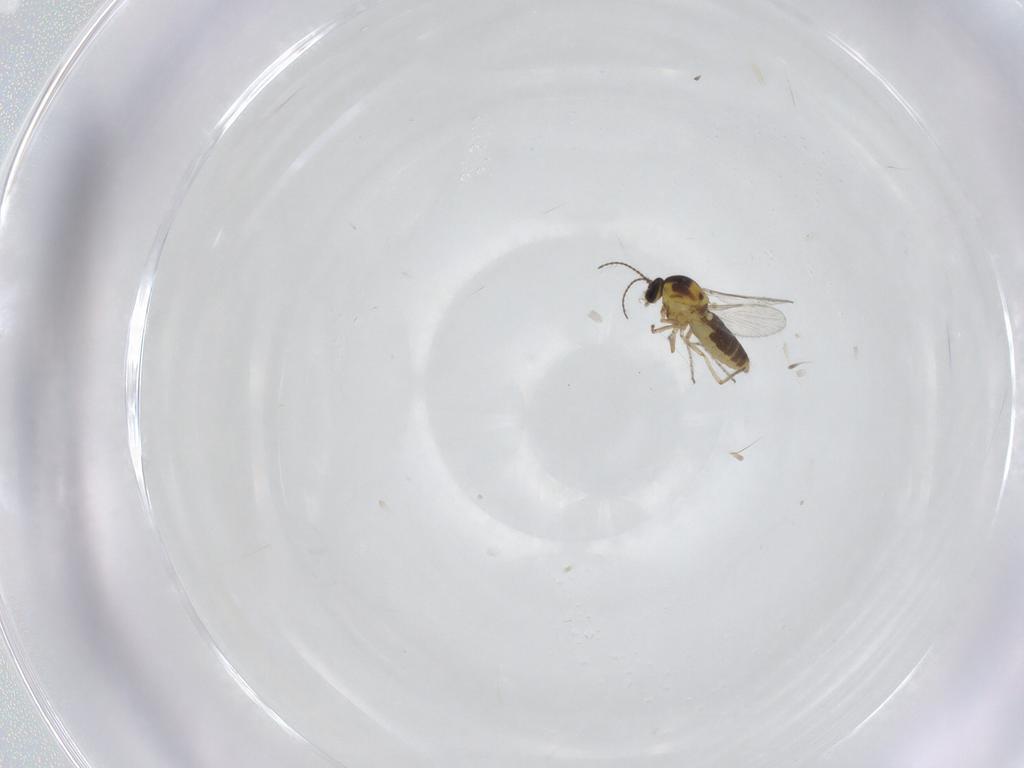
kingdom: Animalia
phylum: Arthropoda
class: Insecta
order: Diptera
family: Ceratopogonidae
